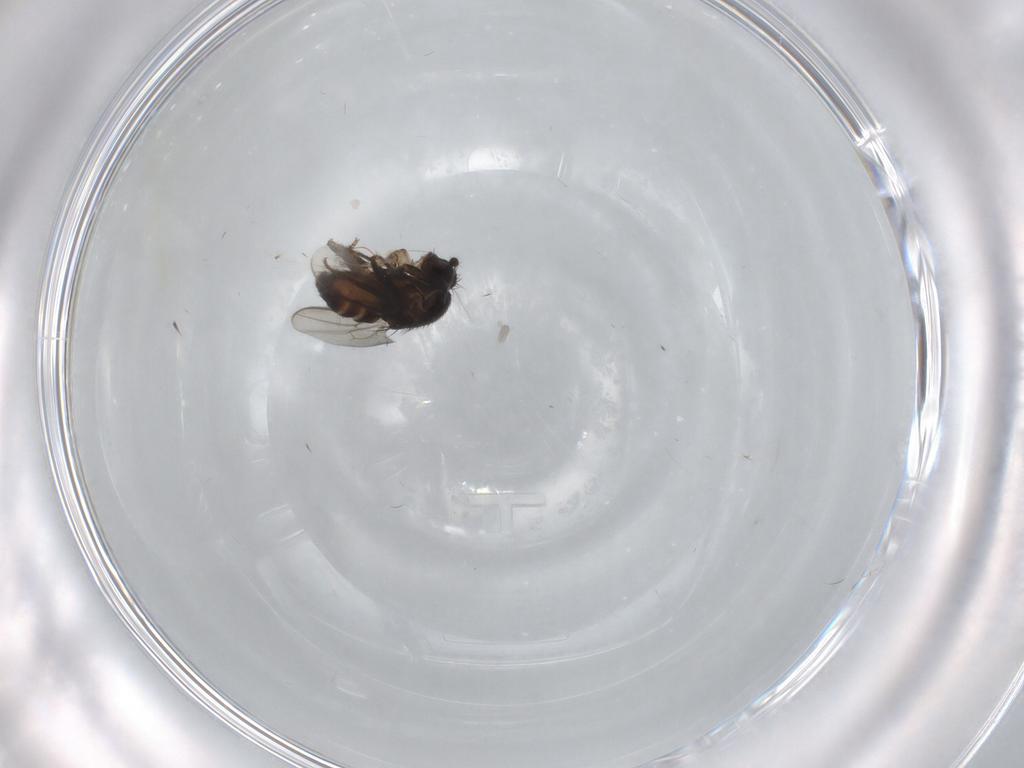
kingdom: Animalia
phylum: Arthropoda
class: Insecta
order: Diptera
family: Sphaeroceridae
